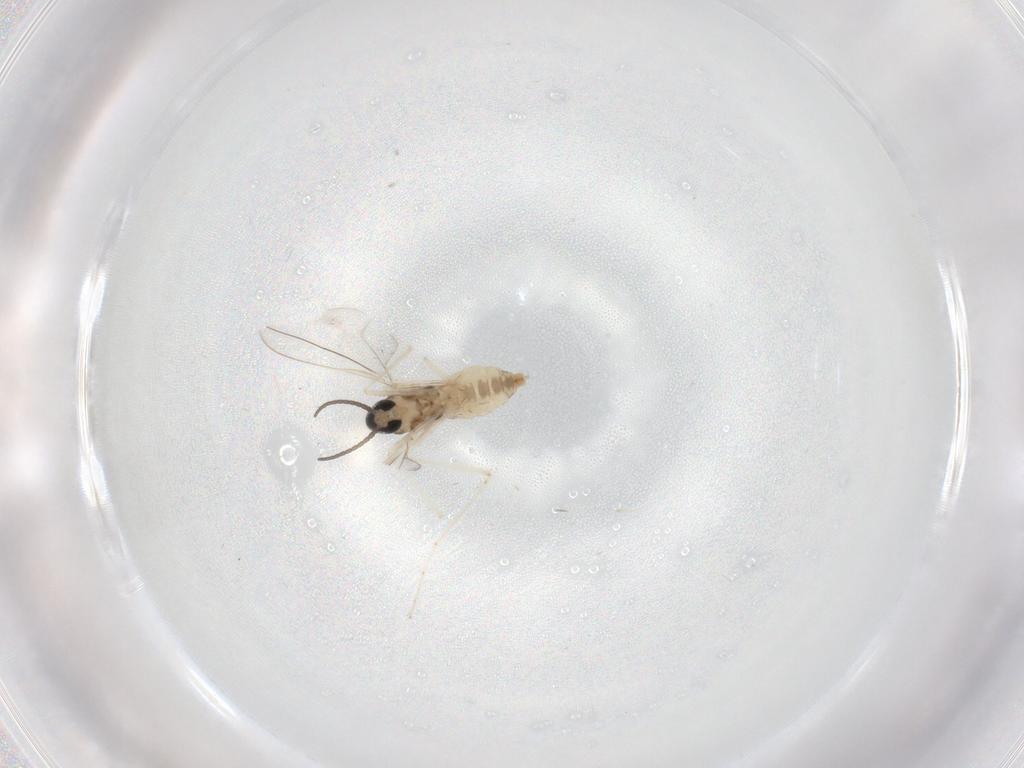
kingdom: Animalia
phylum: Arthropoda
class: Insecta
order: Diptera
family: Cecidomyiidae
